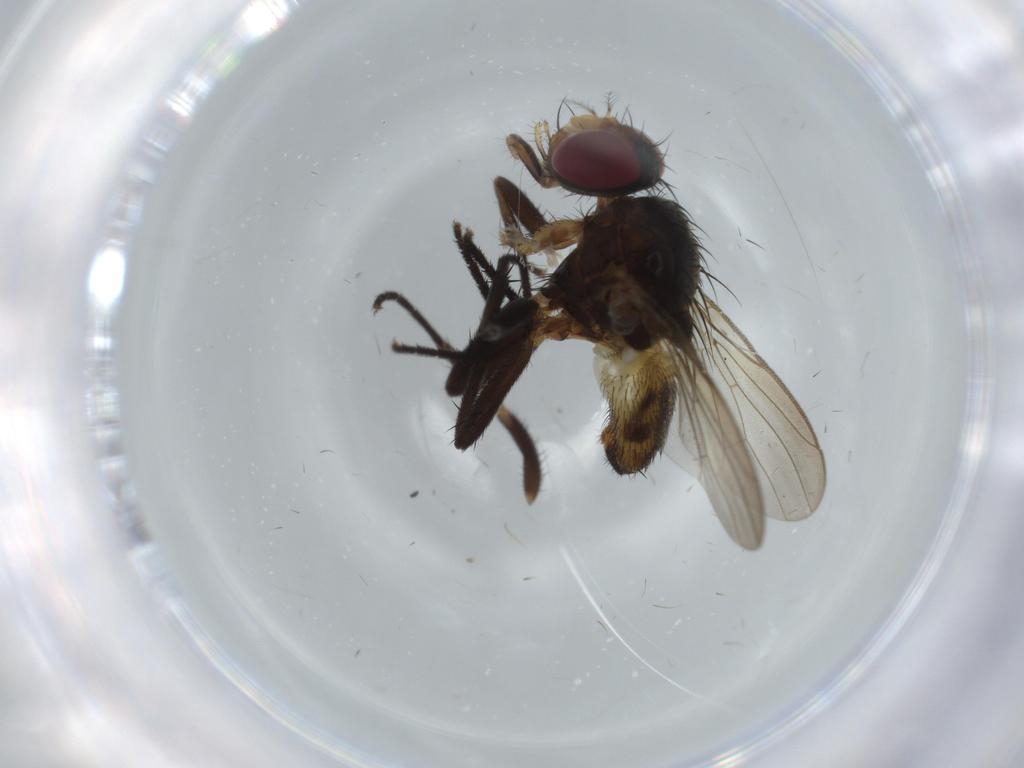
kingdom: Animalia
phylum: Arthropoda
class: Insecta
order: Diptera
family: Anthomyiidae
